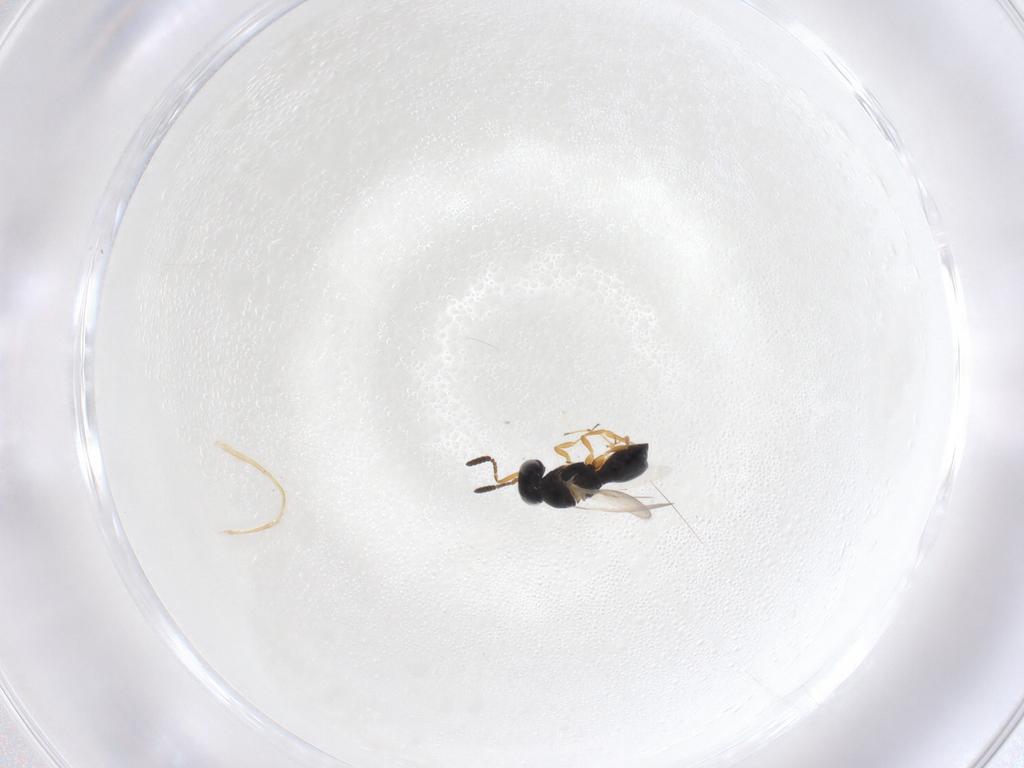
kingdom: Animalia
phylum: Arthropoda
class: Insecta
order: Hymenoptera
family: Scelionidae
